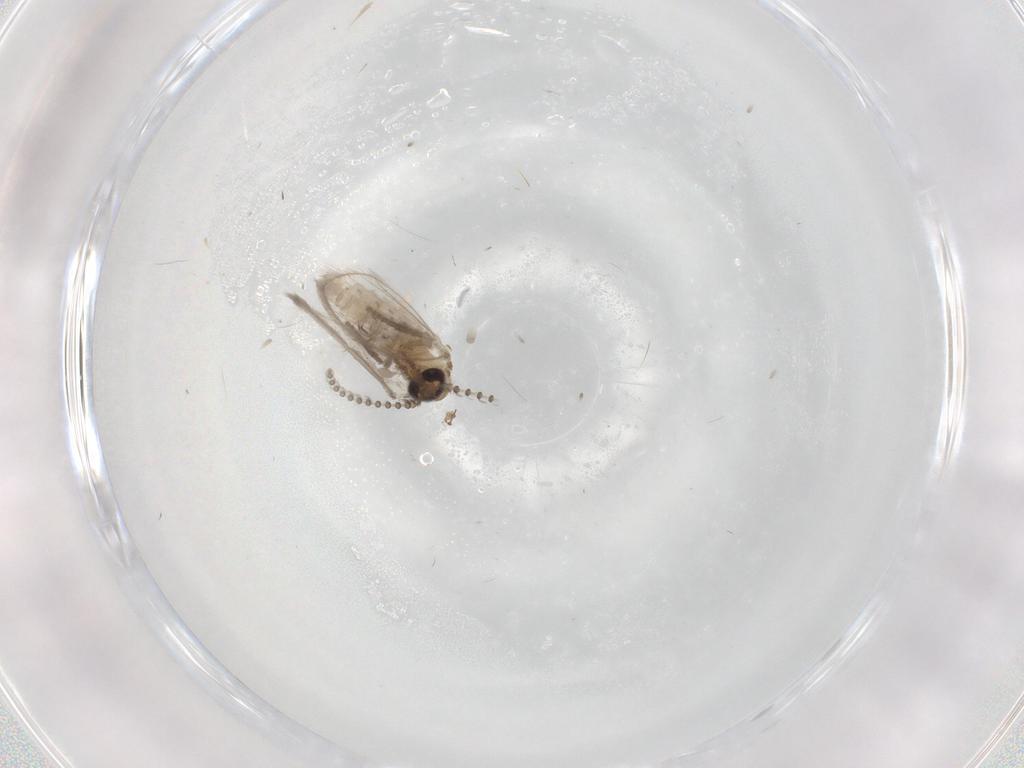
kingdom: Animalia
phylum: Arthropoda
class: Insecta
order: Diptera
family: Psychodidae
